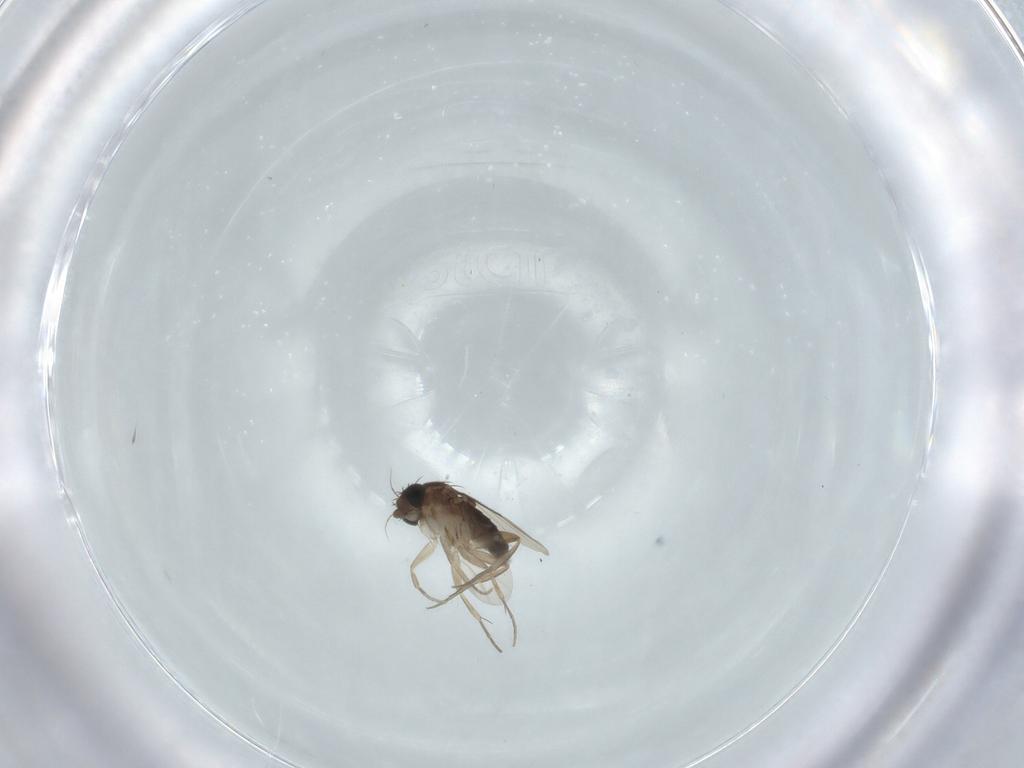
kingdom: Animalia
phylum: Arthropoda
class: Insecta
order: Diptera
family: Sciaridae
